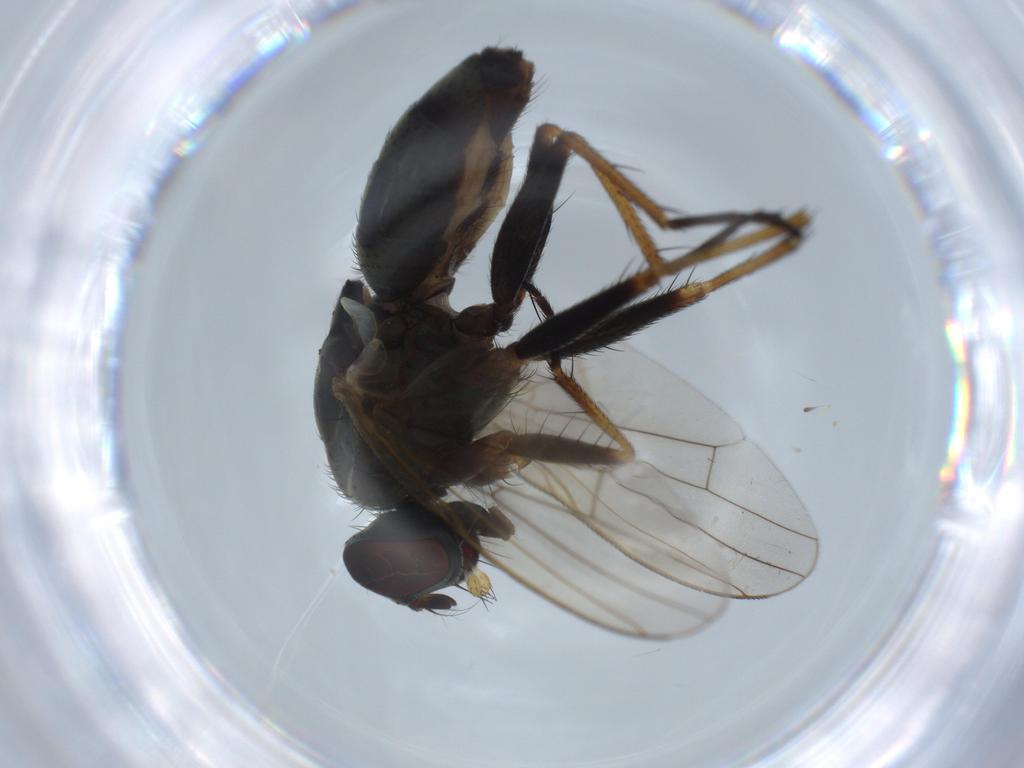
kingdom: Animalia
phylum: Arthropoda
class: Insecta
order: Diptera
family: Chironomidae
